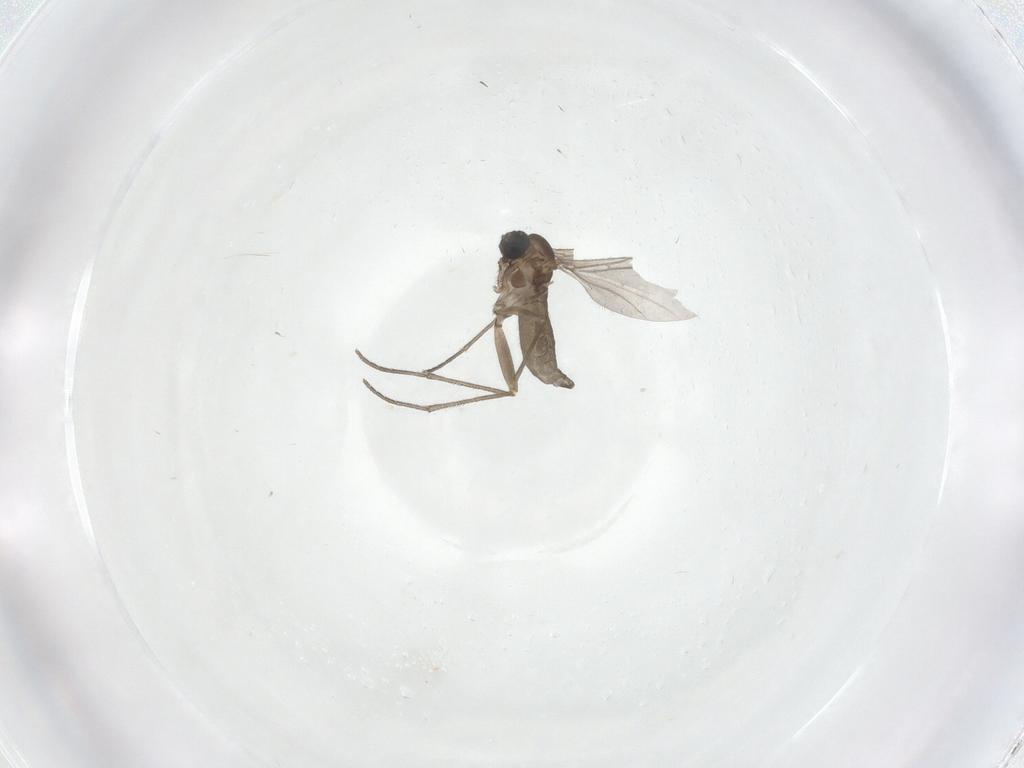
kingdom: Animalia
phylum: Arthropoda
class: Insecta
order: Diptera
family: Sciaridae
